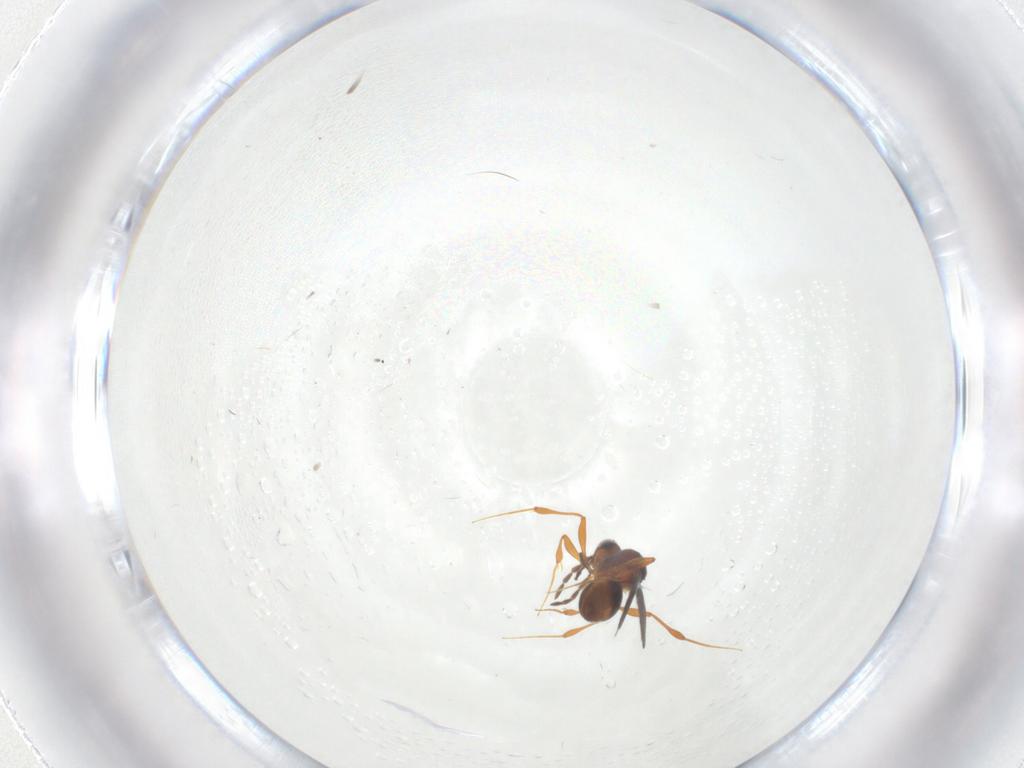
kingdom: Animalia
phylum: Arthropoda
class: Insecta
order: Hymenoptera
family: Platygastridae
